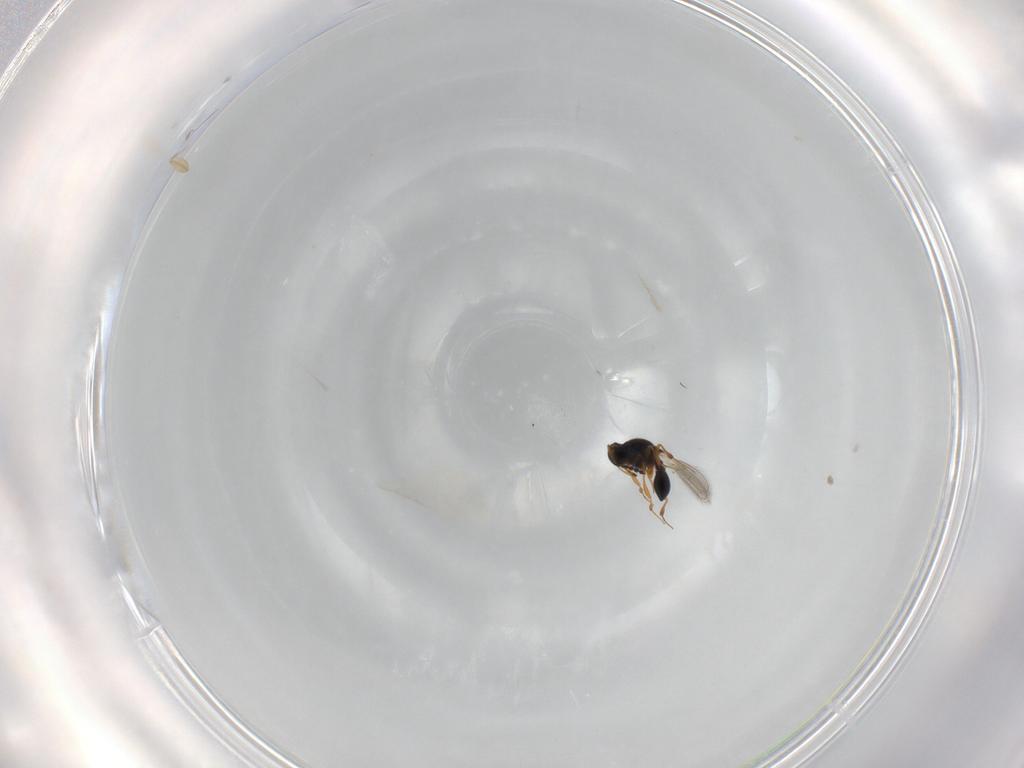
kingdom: Animalia
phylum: Arthropoda
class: Insecta
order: Hymenoptera
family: Platygastridae
